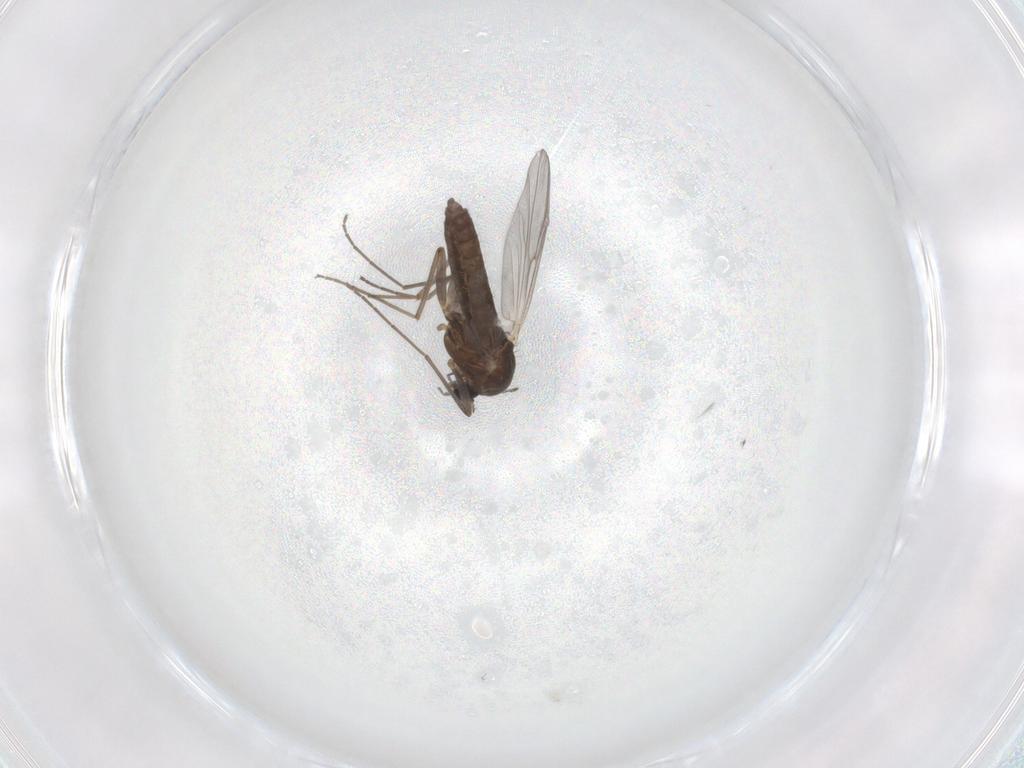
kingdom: Animalia
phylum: Arthropoda
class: Insecta
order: Diptera
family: Chironomidae
